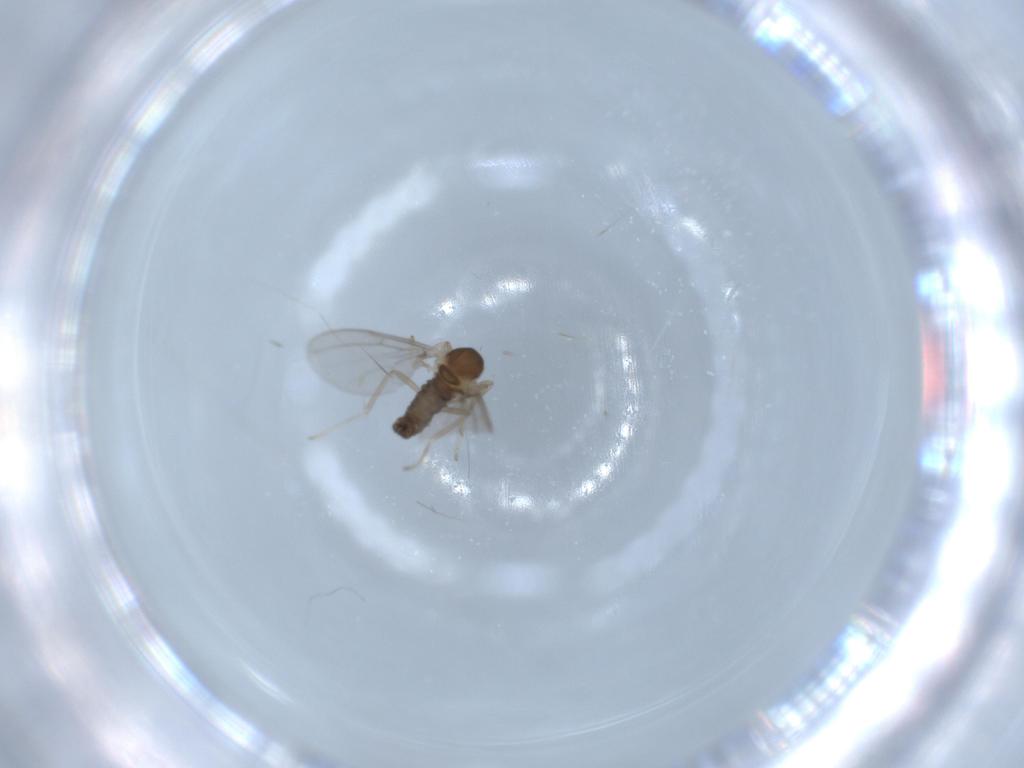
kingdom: Animalia
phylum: Arthropoda
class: Insecta
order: Diptera
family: Cecidomyiidae
